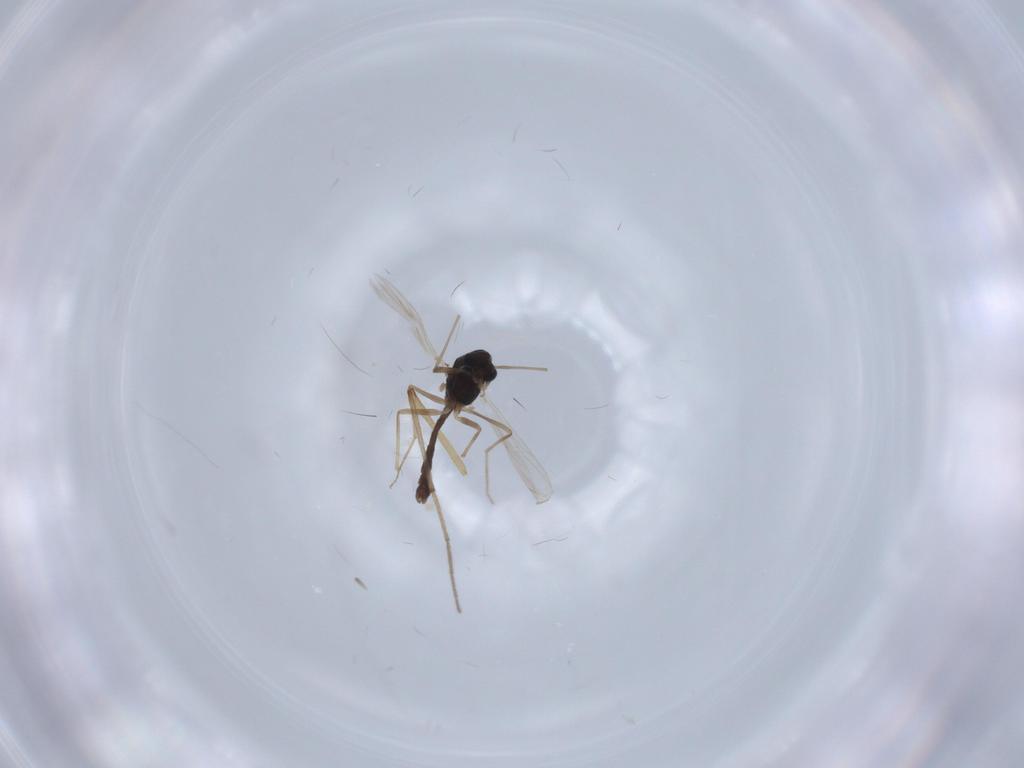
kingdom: Animalia
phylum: Arthropoda
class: Insecta
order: Diptera
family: Chironomidae
